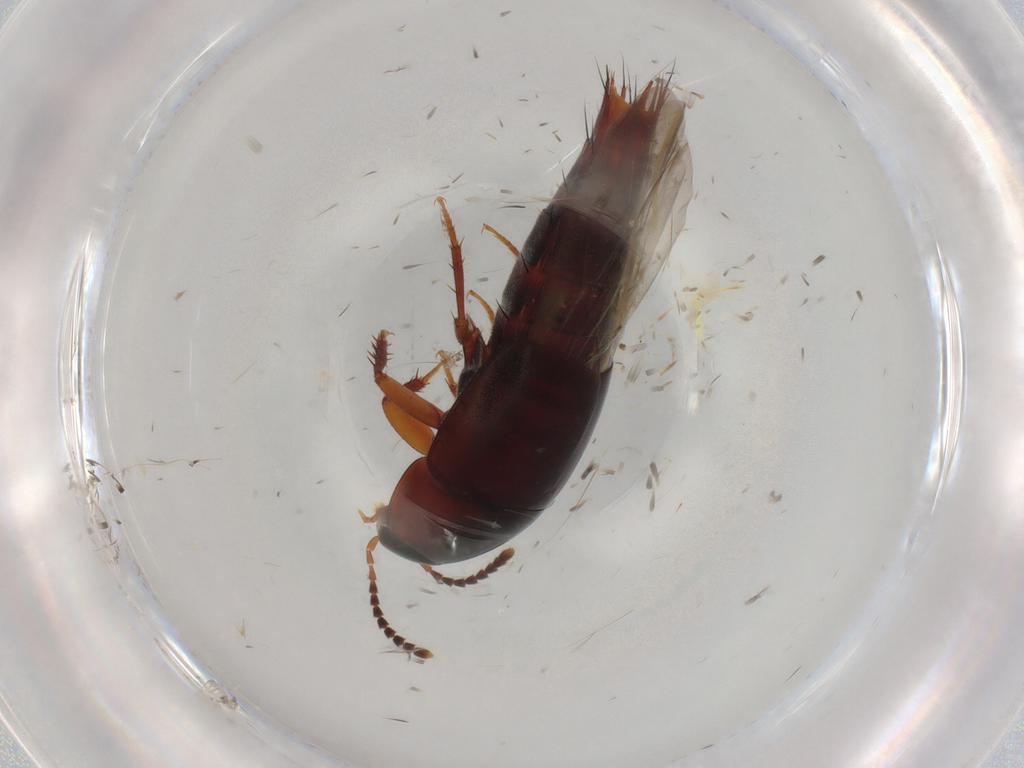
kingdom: Animalia
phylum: Arthropoda
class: Insecta
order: Coleoptera
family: Staphylinidae
